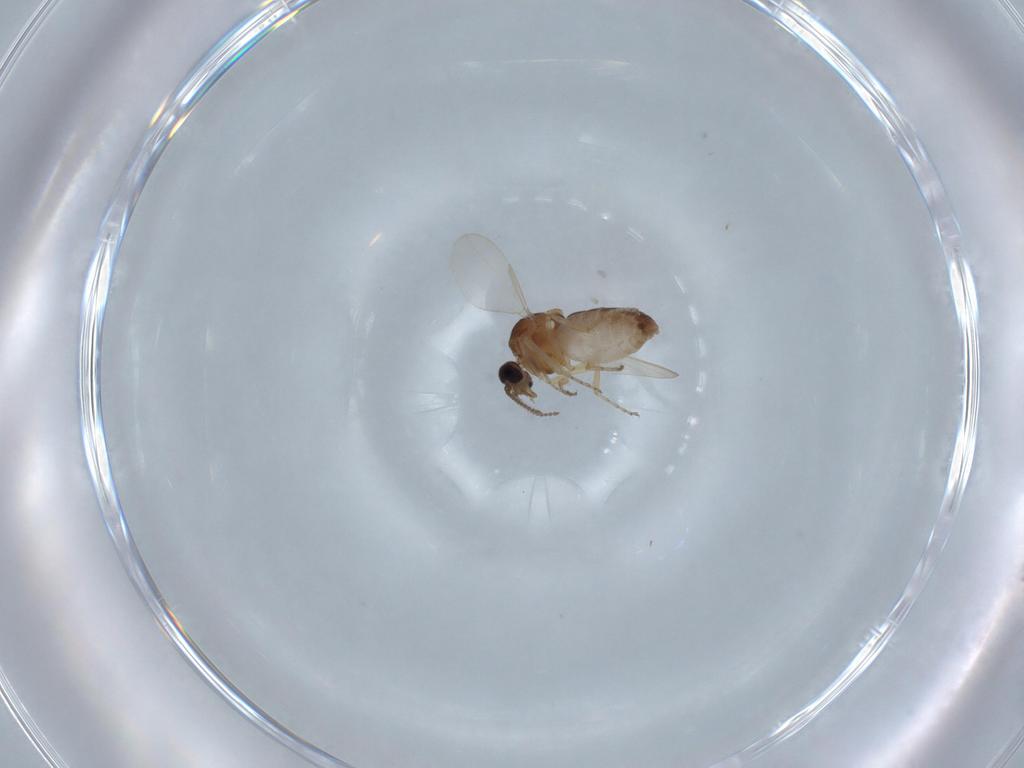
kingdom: Animalia
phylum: Arthropoda
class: Insecta
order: Diptera
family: Ceratopogonidae
